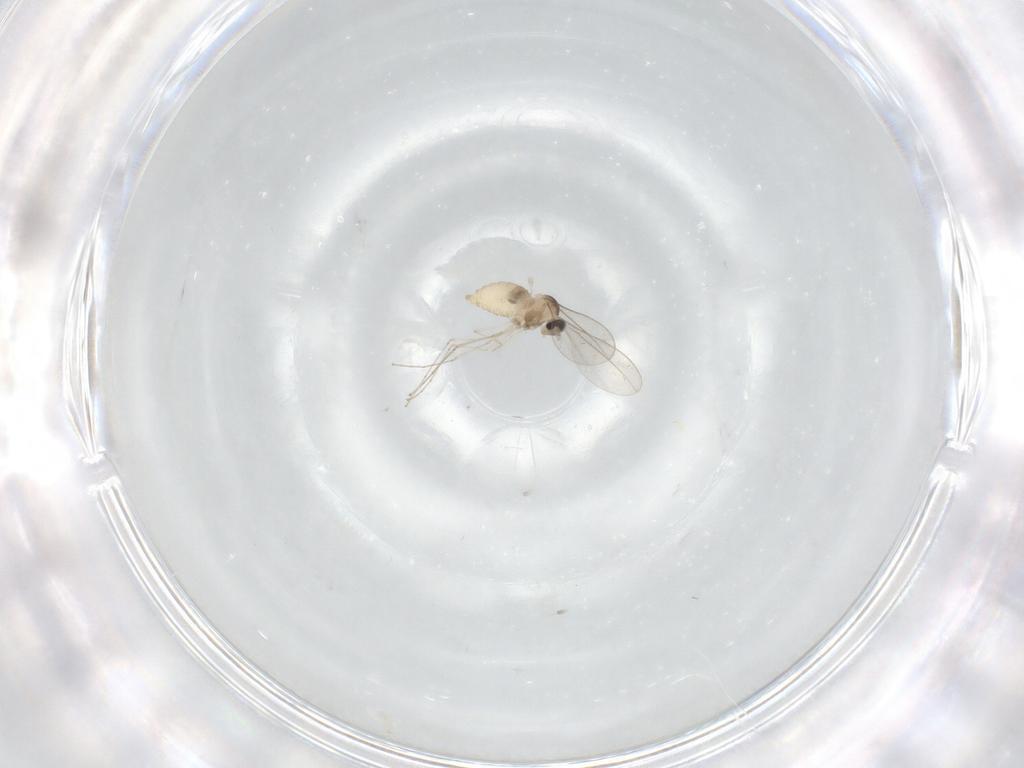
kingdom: Animalia
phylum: Arthropoda
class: Insecta
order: Diptera
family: Cecidomyiidae
